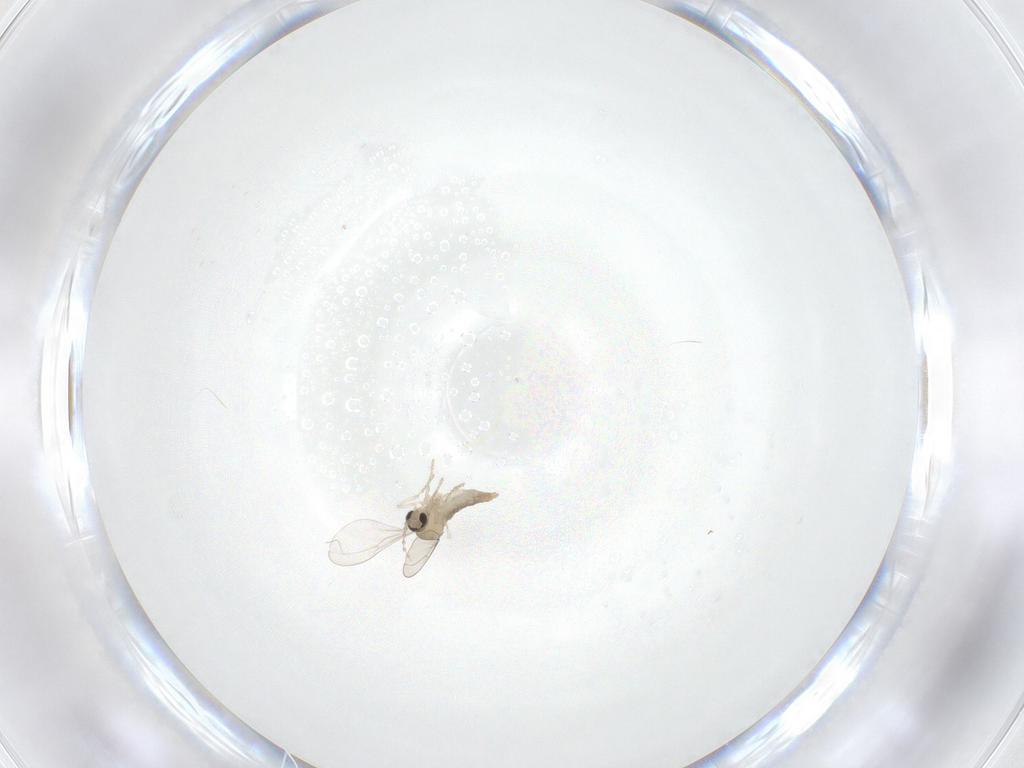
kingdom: Animalia
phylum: Arthropoda
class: Insecta
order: Diptera
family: Cecidomyiidae
